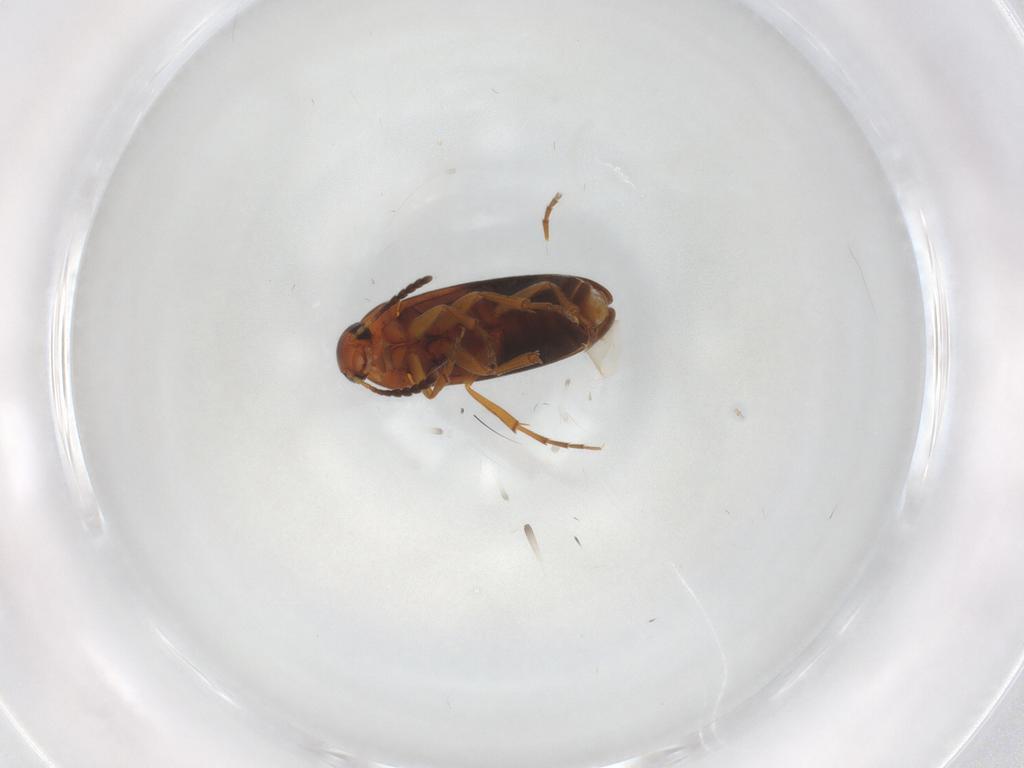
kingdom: Animalia
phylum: Arthropoda
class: Insecta
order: Coleoptera
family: Scraptiidae
